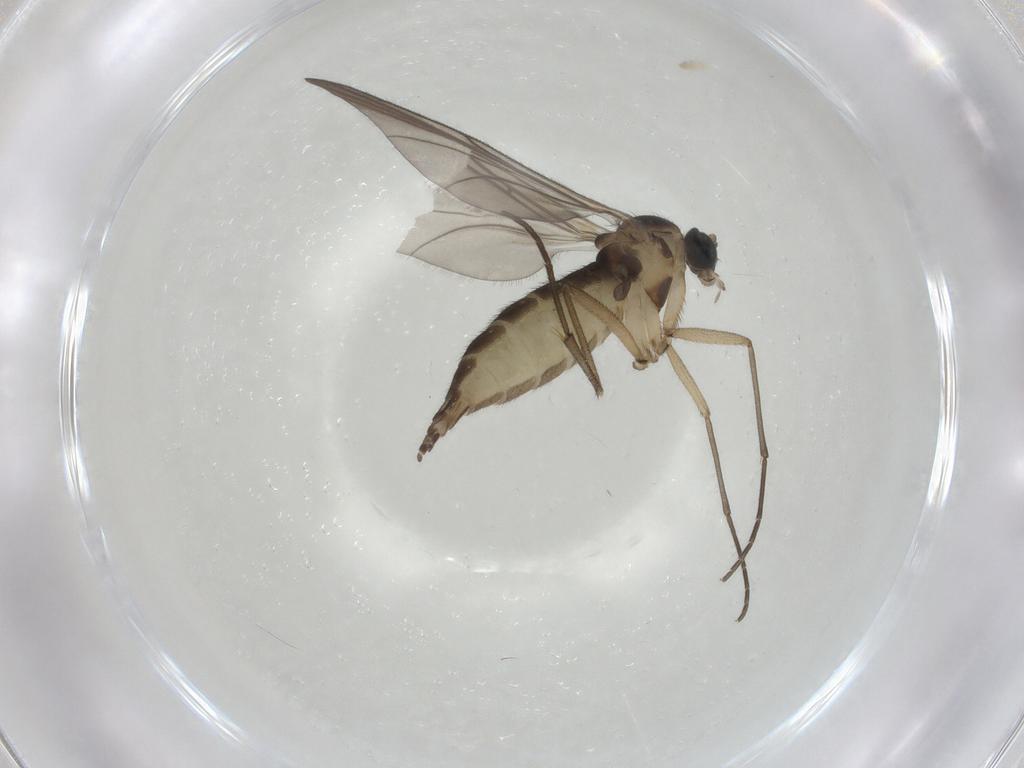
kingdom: Animalia
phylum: Arthropoda
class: Insecta
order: Diptera
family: Sciaridae
